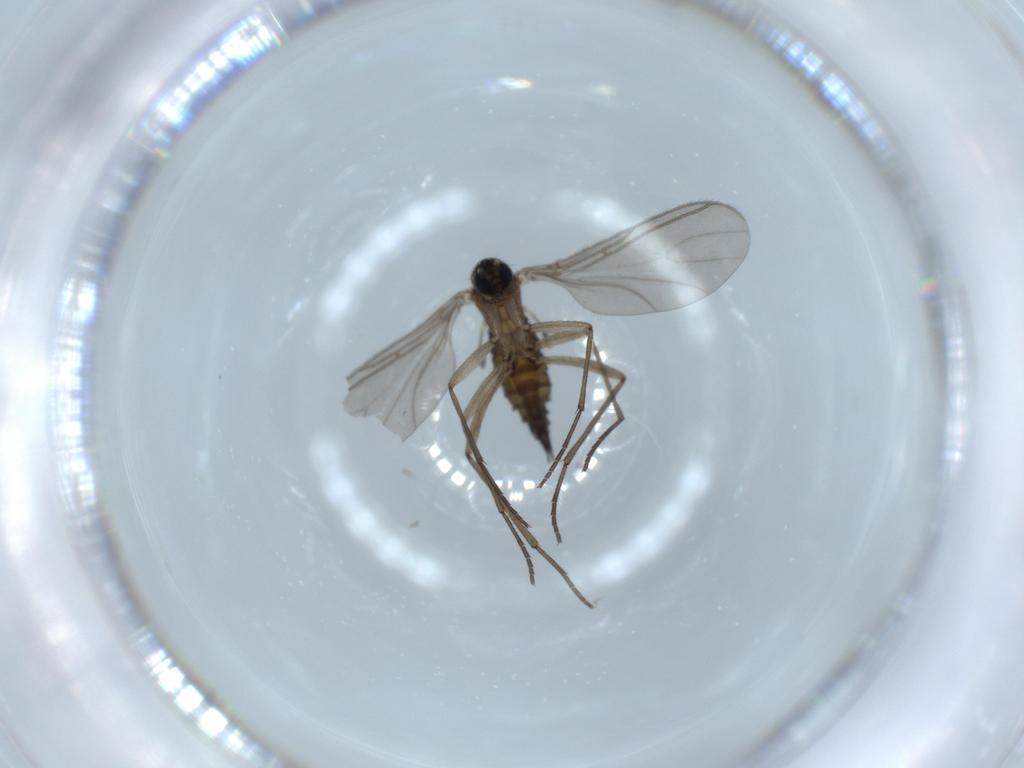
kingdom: Animalia
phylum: Arthropoda
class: Insecta
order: Diptera
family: Sciaridae
